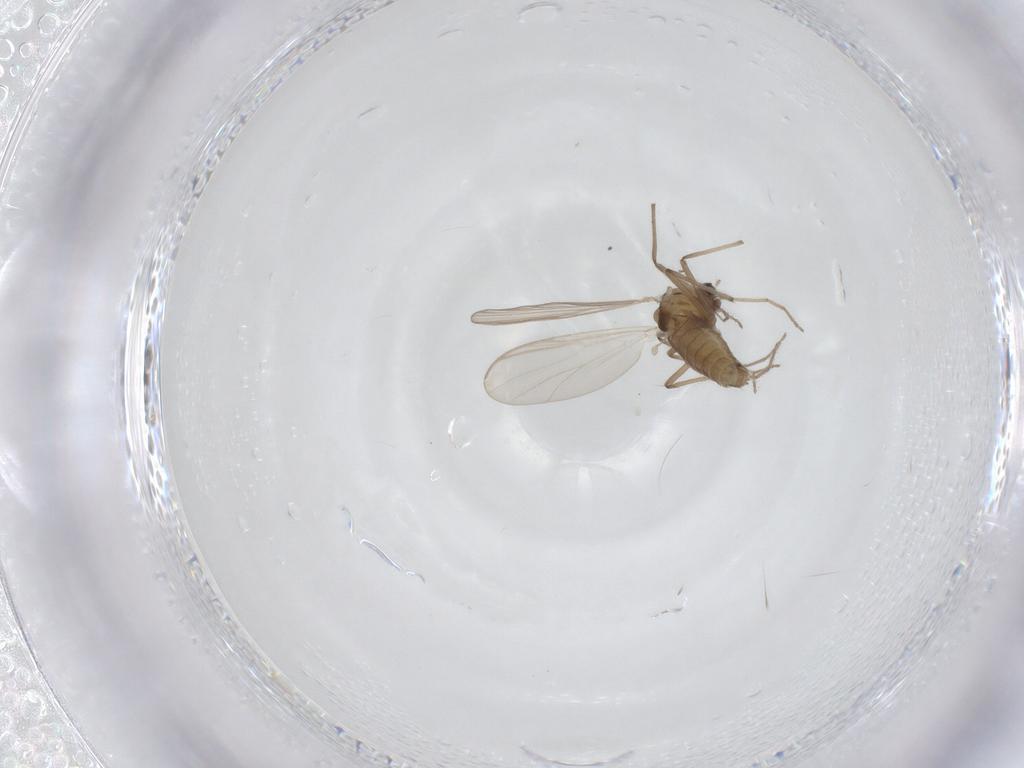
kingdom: Animalia
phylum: Arthropoda
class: Insecta
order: Diptera
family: Chironomidae
